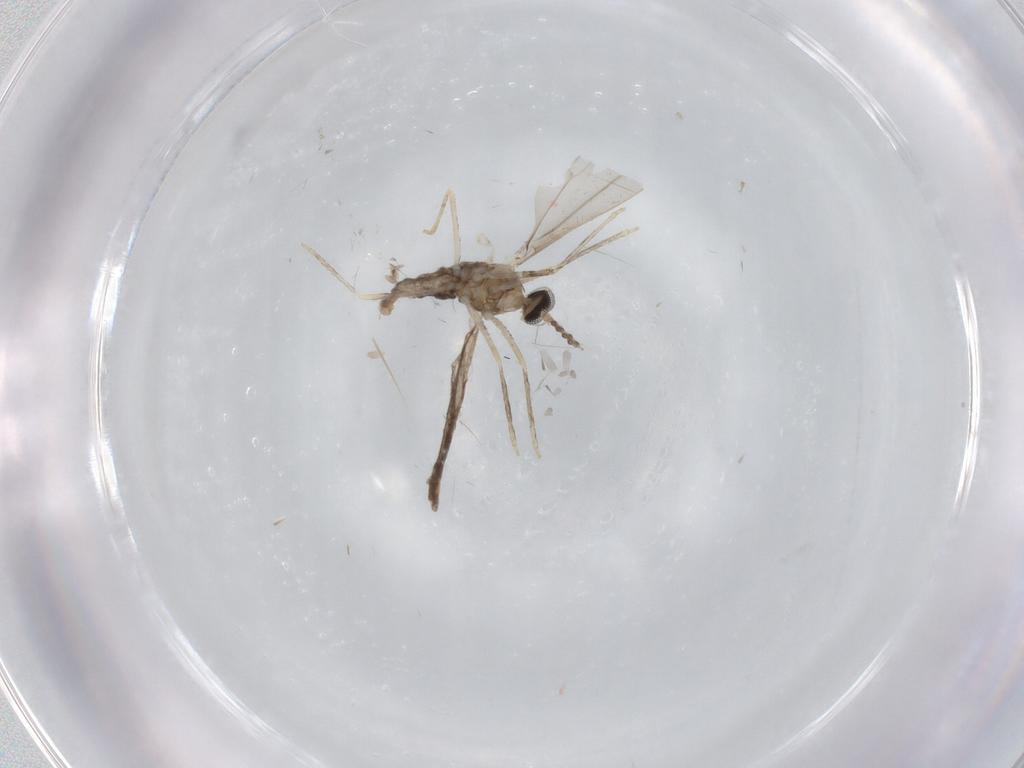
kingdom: Animalia
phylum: Arthropoda
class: Insecta
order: Diptera
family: Cecidomyiidae
